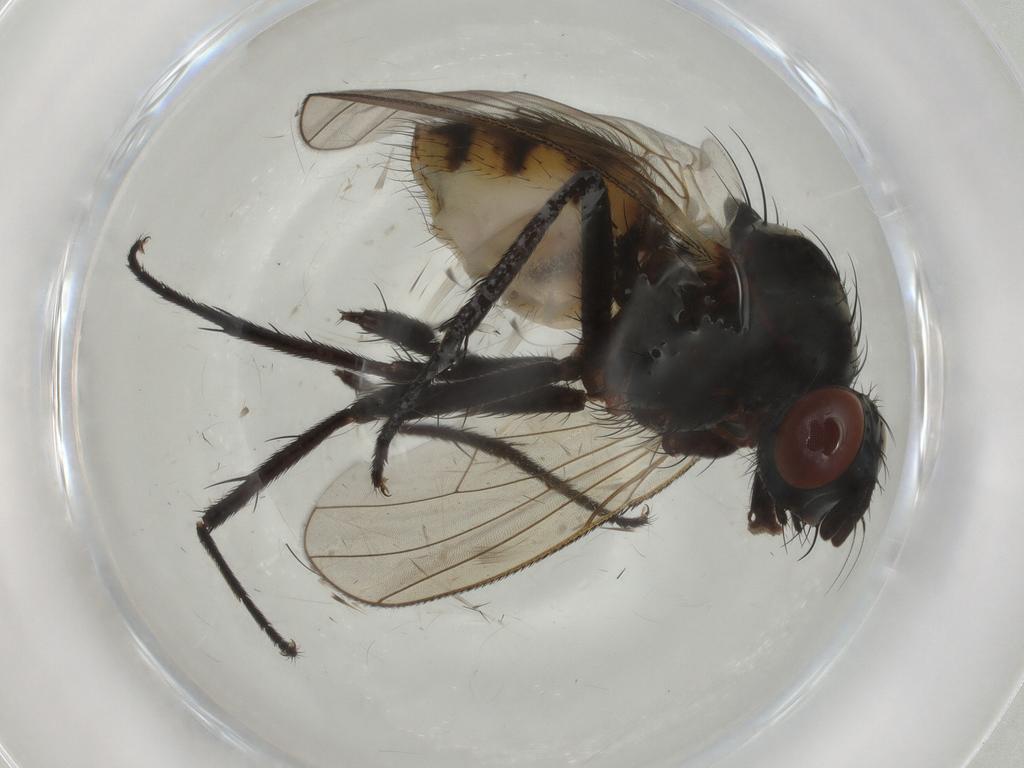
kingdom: Animalia
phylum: Arthropoda
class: Insecta
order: Diptera
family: Anthomyiidae
